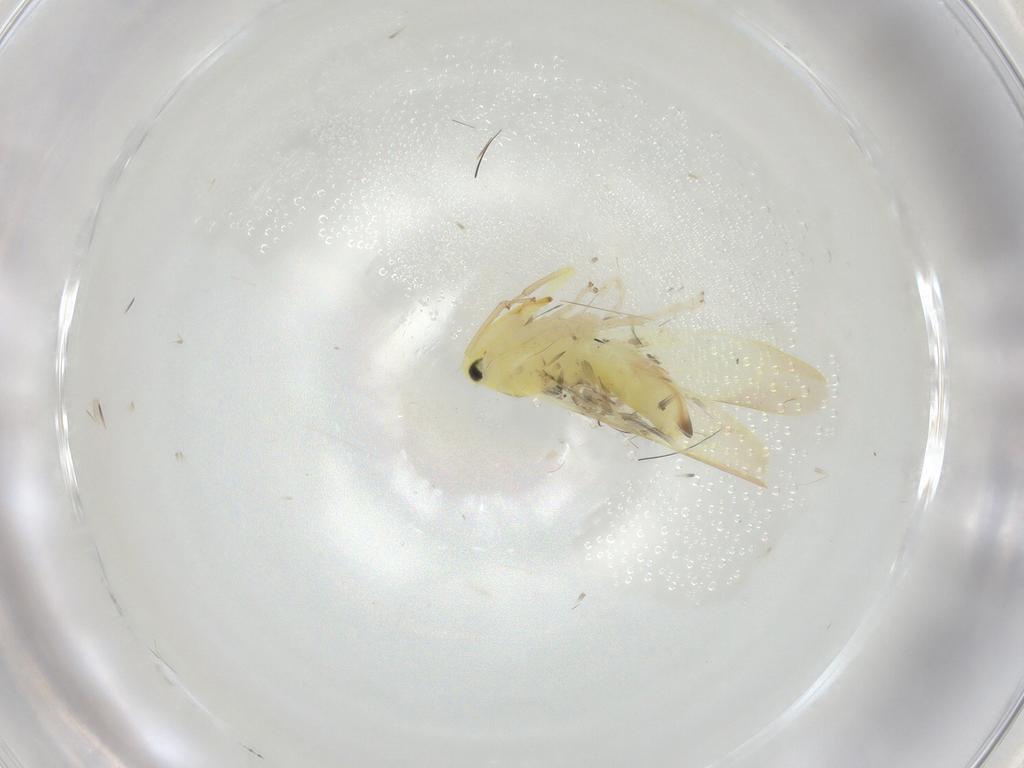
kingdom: Animalia
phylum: Arthropoda
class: Insecta
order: Hemiptera
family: Cicadellidae
